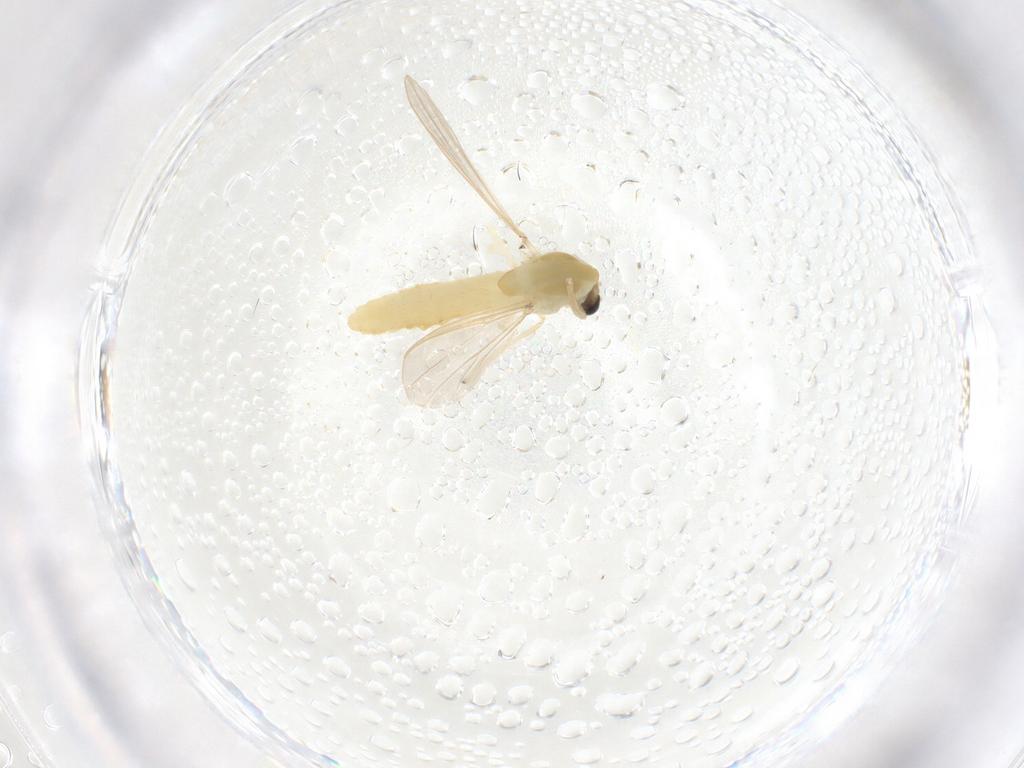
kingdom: Animalia
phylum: Arthropoda
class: Insecta
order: Diptera
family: Chironomidae
